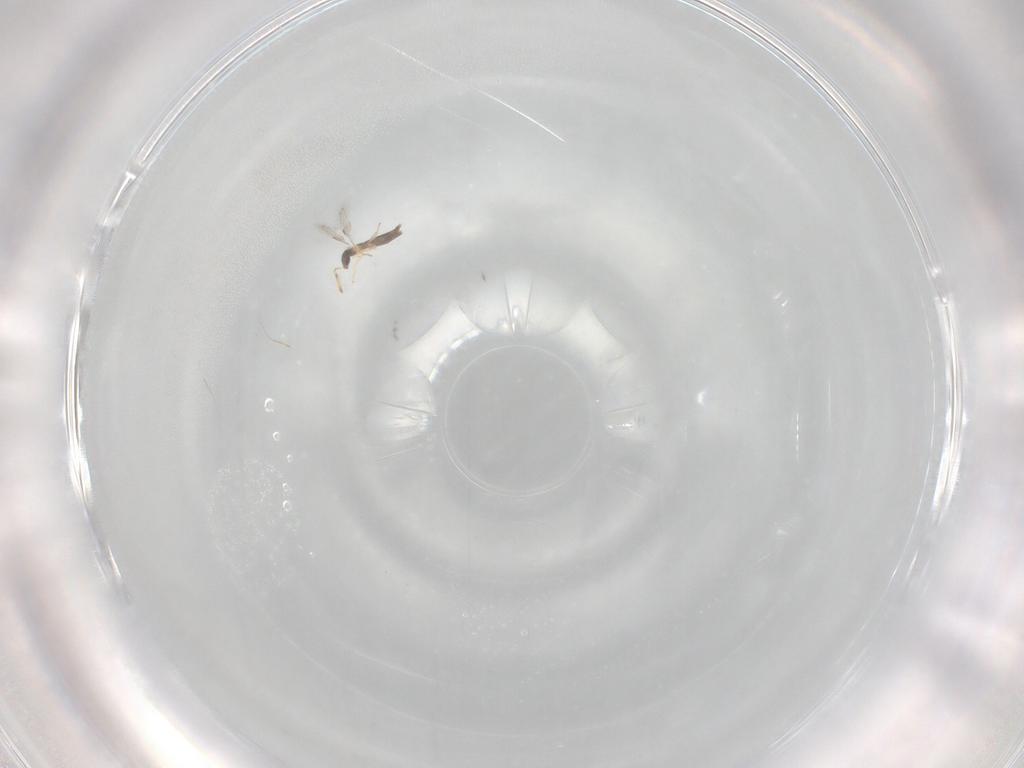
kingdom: Animalia
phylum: Arthropoda
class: Insecta
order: Hymenoptera
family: Aphelinidae
